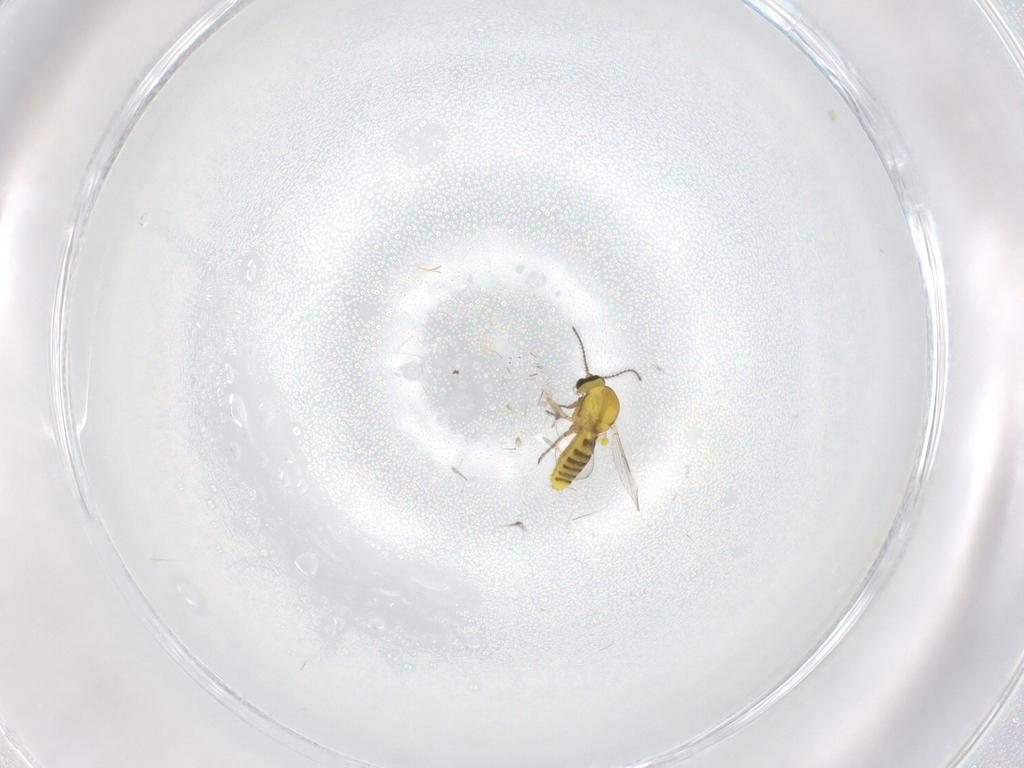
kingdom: Animalia
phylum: Arthropoda
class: Insecta
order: Diptera
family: Ceratopogonidae
